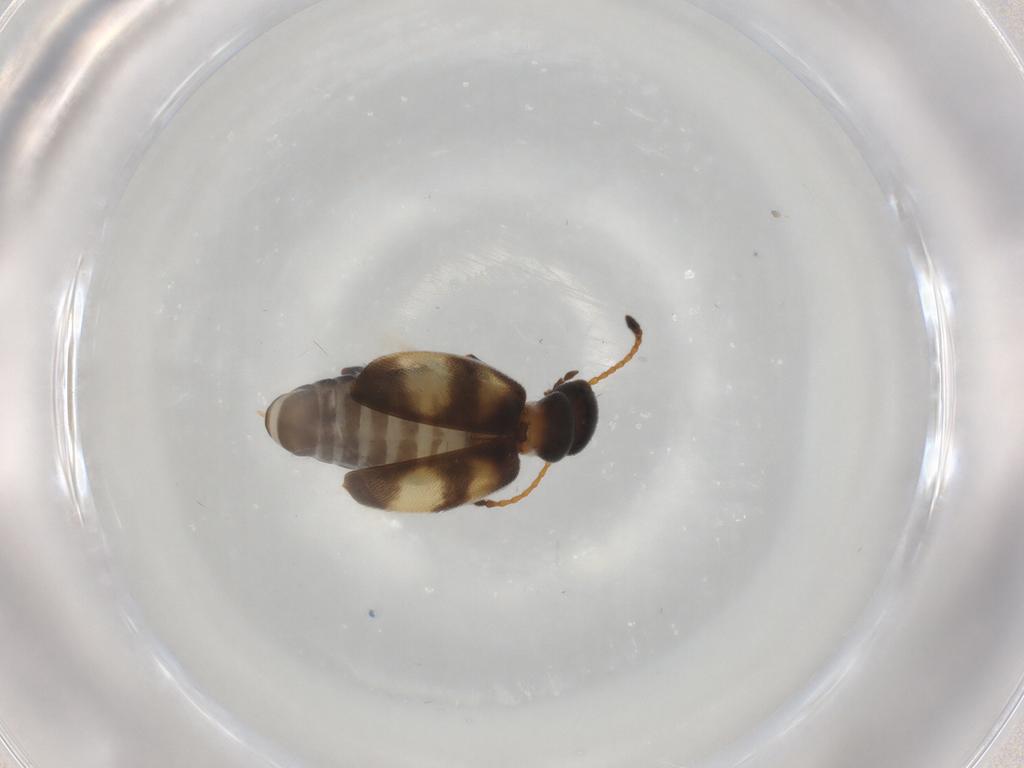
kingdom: Animalia
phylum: Arthropoda
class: Insecta
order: Coleoptera
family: Anthicidae
